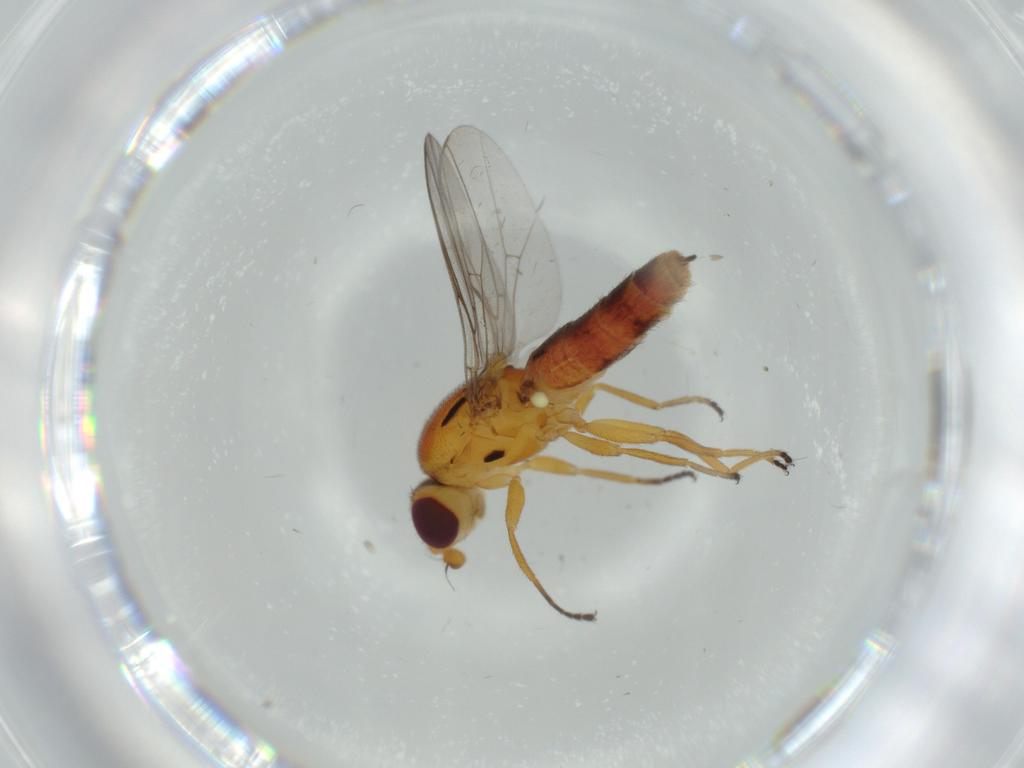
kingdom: Animalia
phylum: Arthropoda
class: Insecta
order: Diptera
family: Chloropidae
